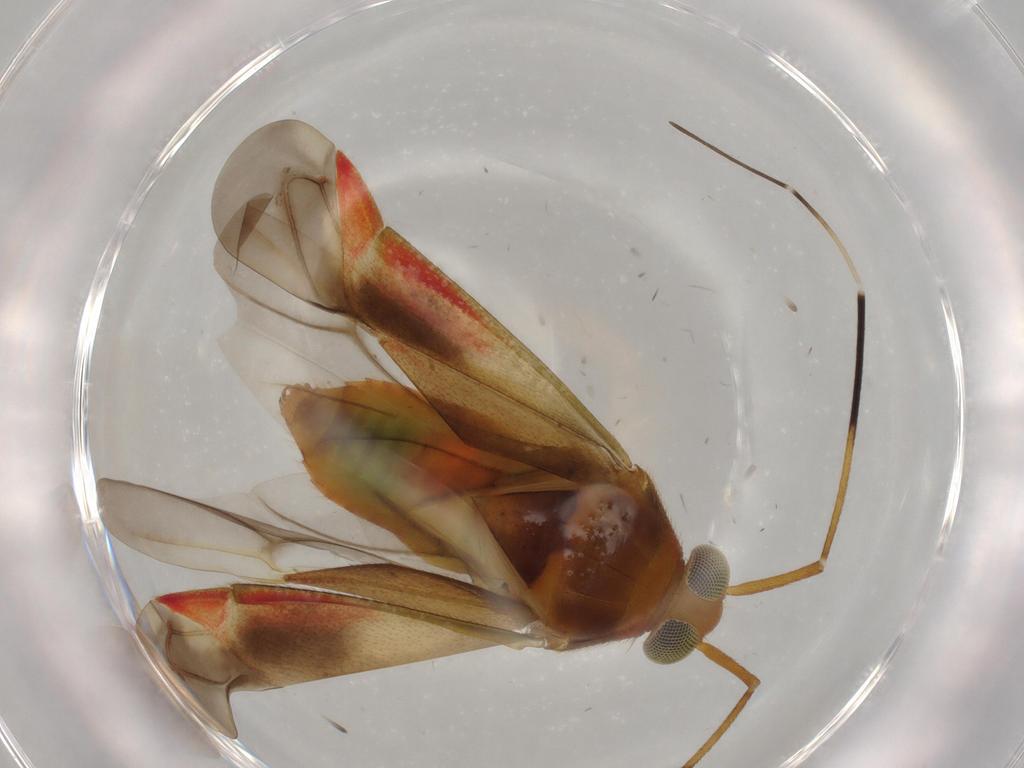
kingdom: Animalia
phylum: Arthropoda
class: Insecta
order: Hemiptera
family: Miridae
